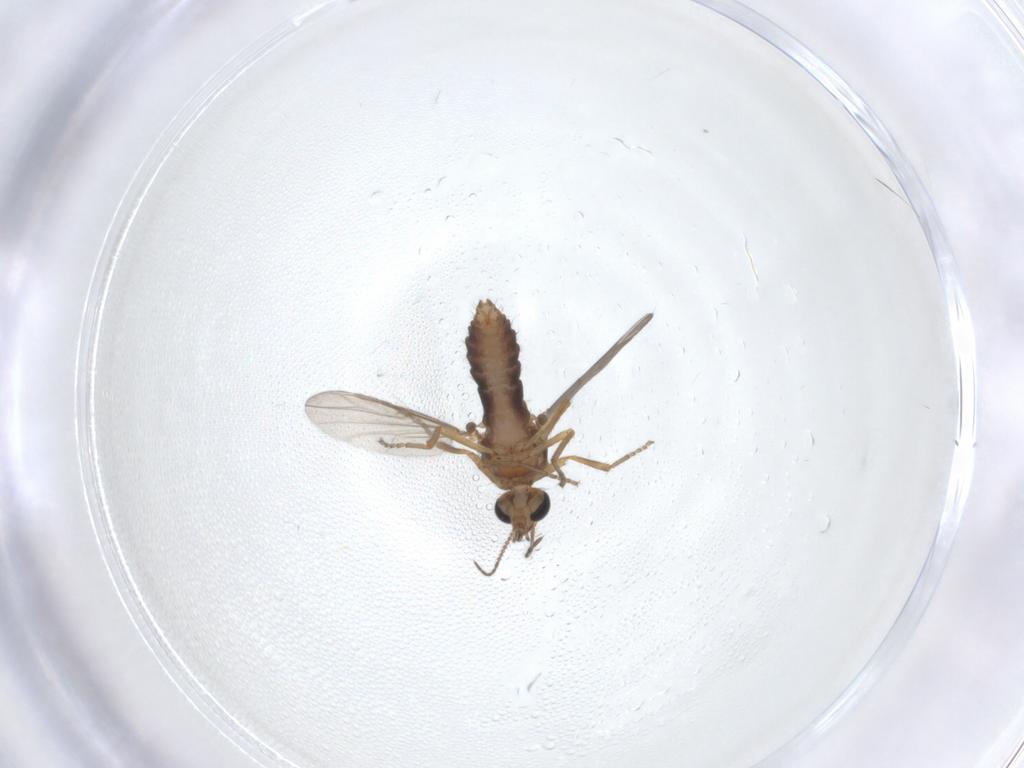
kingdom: Animalia
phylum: Arthropoda
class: Insecta
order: Diptera
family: Ceratopogonidae
